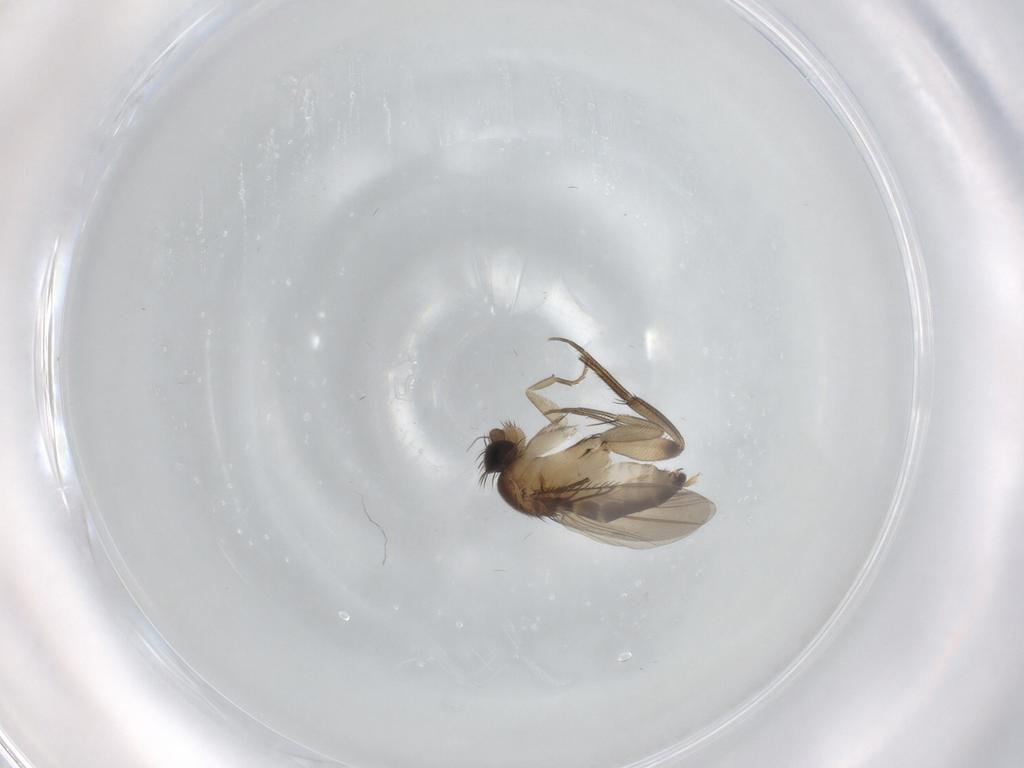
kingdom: Animalia
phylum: Arthropoda
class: Insecta
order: Diptera
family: Phoridae
